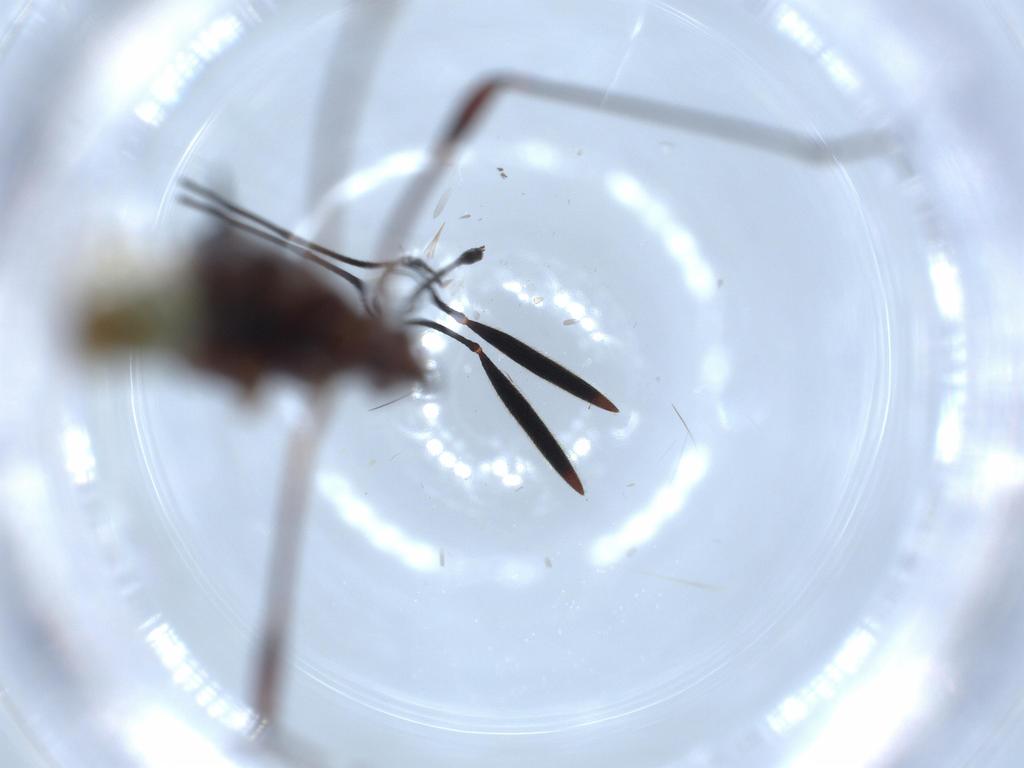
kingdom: Animalia
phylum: Arthropoda
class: Insecta
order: Hemiptera
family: Berytidae
